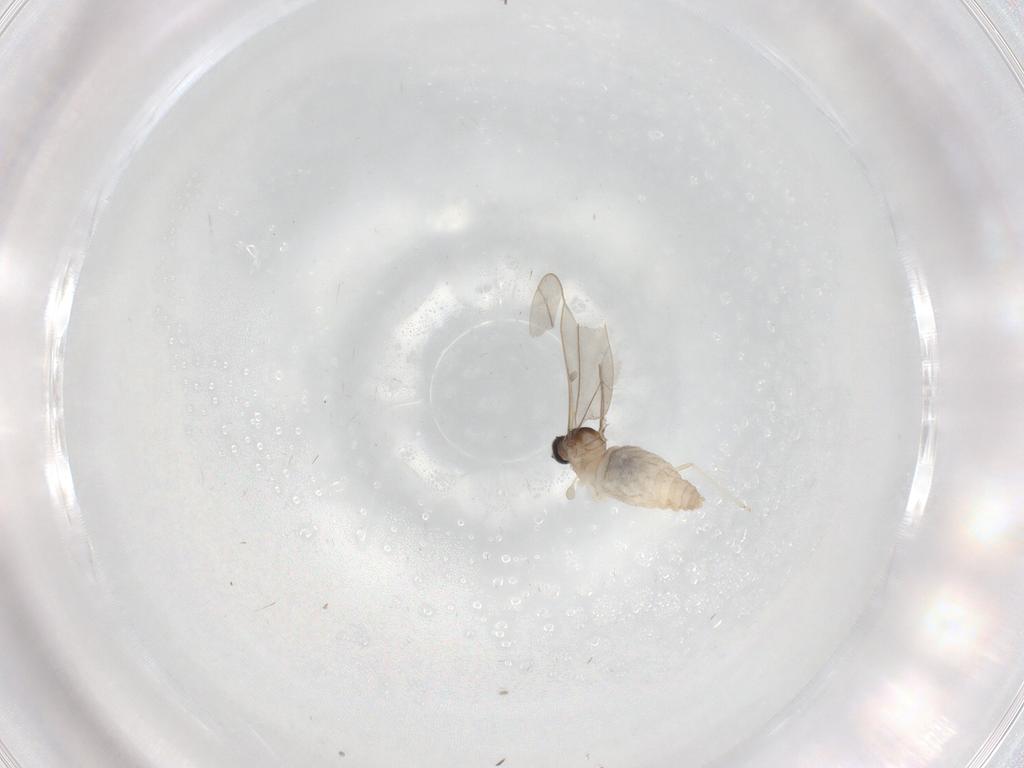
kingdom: Animalia
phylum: Arthropoda
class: Insecta
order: Diptera
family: Cecidomyiidae
